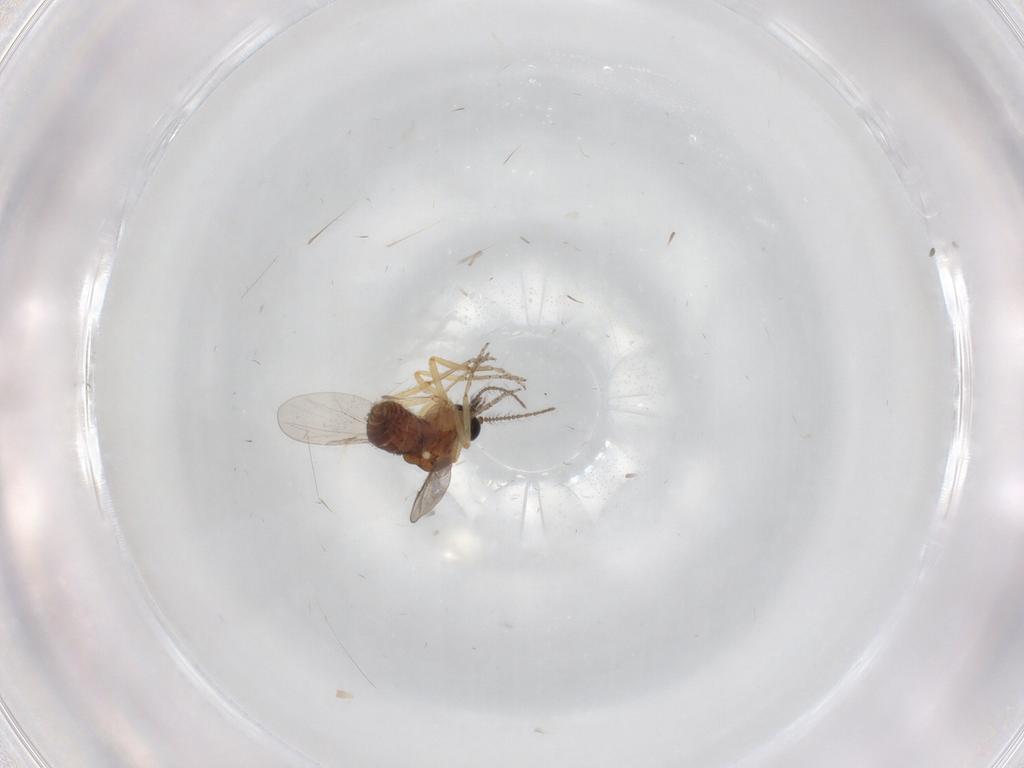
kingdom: Animalia
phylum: Arthropoda
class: Insecta
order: Diptera
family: Ceratopogonidae
